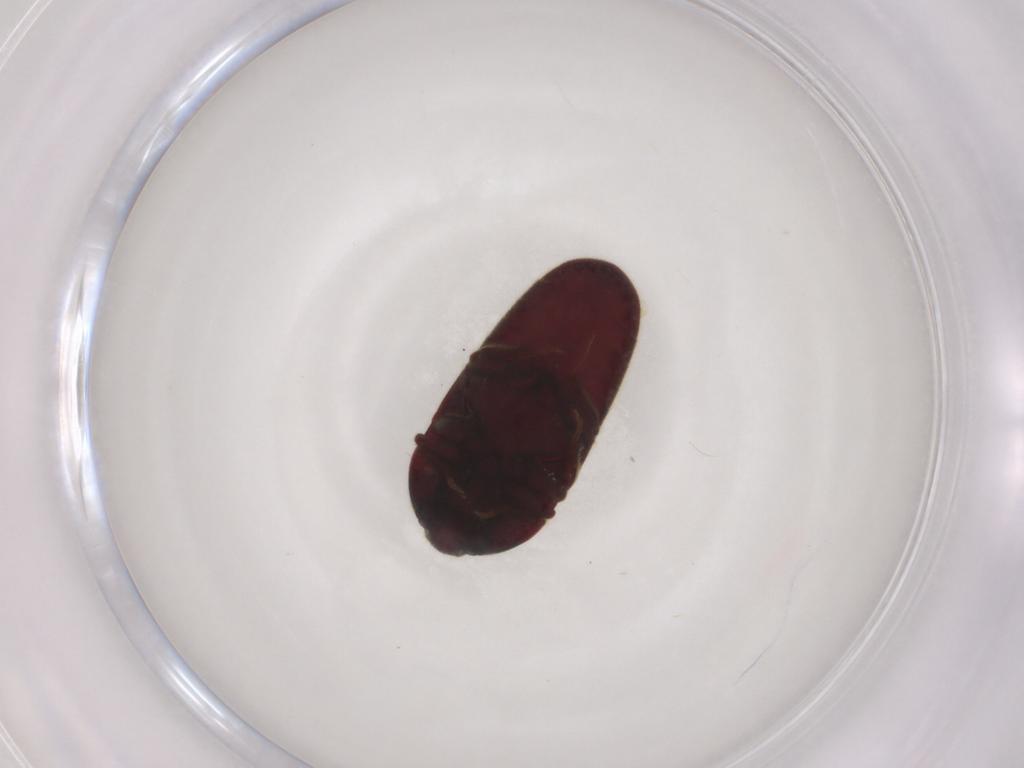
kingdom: Animalia
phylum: Arthropoda
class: Insecta
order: Coleoptera
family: Throscidae
